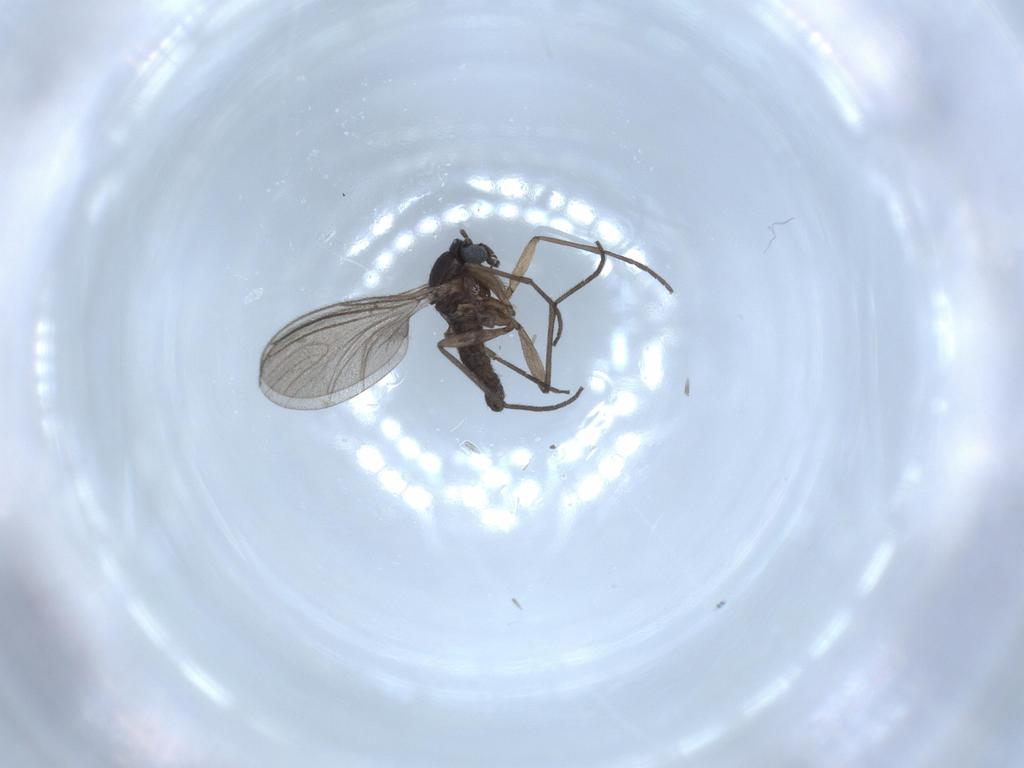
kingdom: Animalia
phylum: Arthropoda
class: Insecta
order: Diptera
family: Sciaridae
